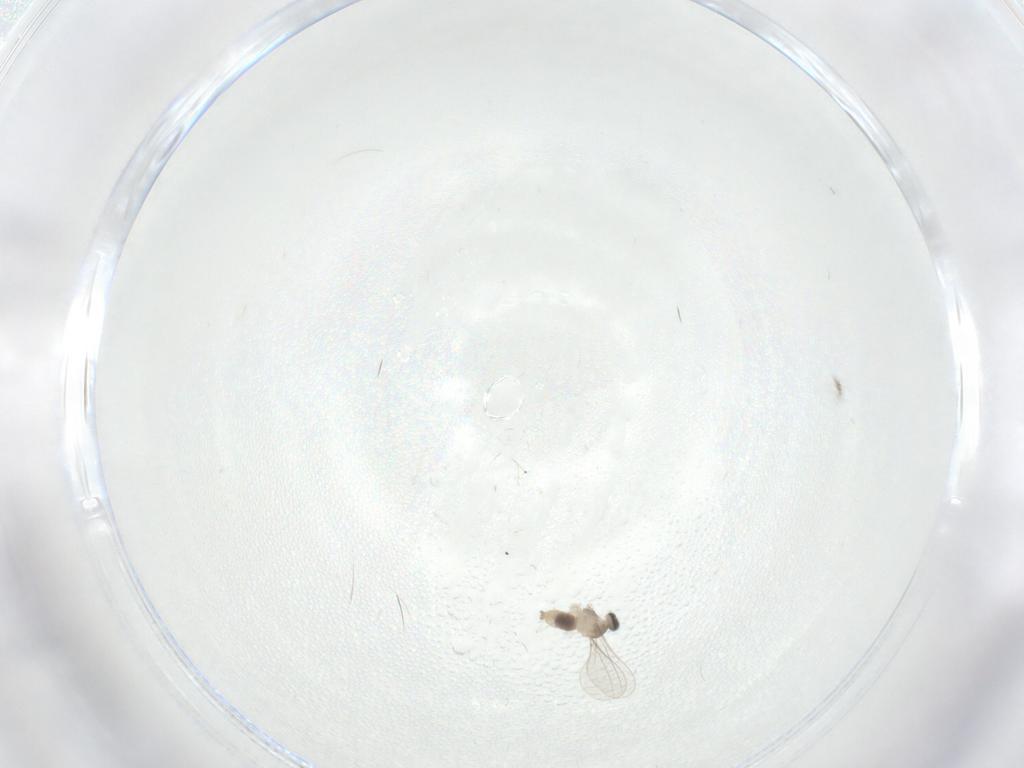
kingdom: Animalia
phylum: Arthropoda
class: Insecta
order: Diptera
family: Cecidomyiidae
